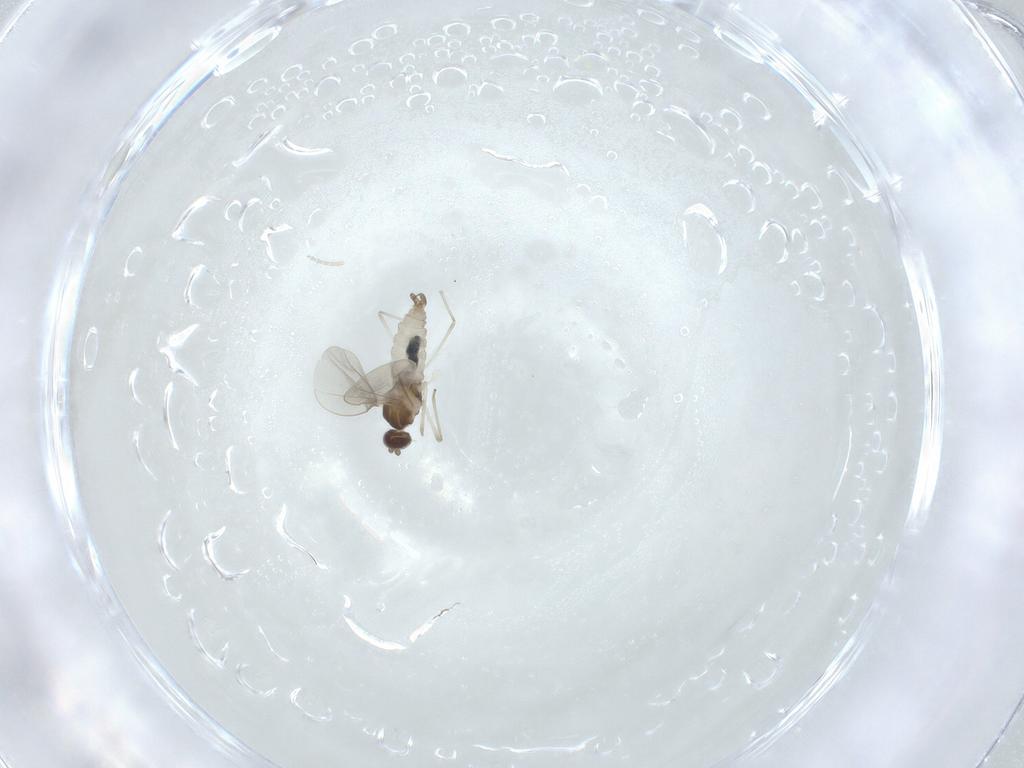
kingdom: Animalia
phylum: Arthropoda
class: Insecta
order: Diptera
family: Cecidomyiidae
